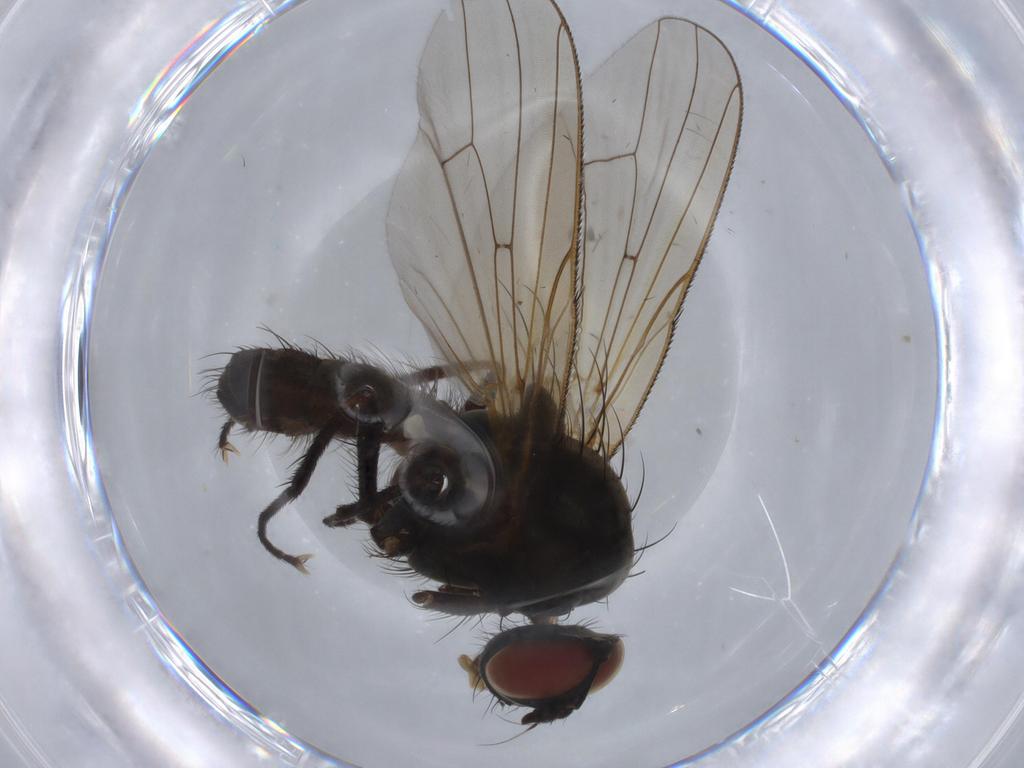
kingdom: Animalia
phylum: Arthropoda
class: Insecta
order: Diptera
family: Anthomyiidae
